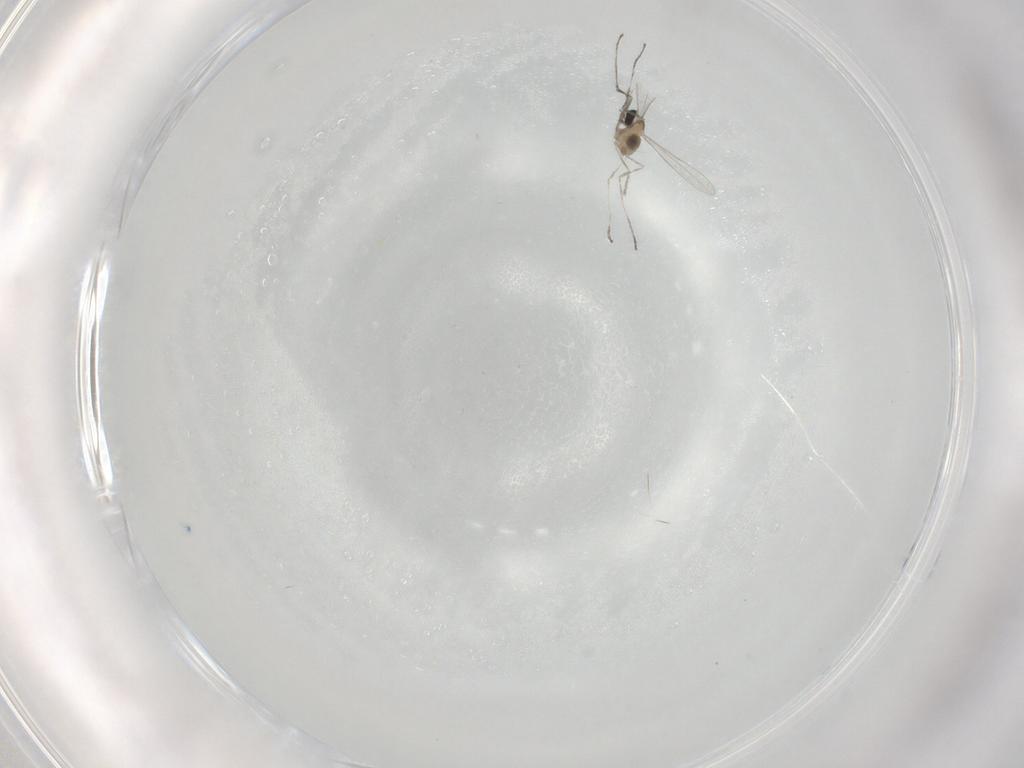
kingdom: Animalia
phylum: Arthropoda
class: Insecta
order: Diptera
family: Cecidomyiidae
